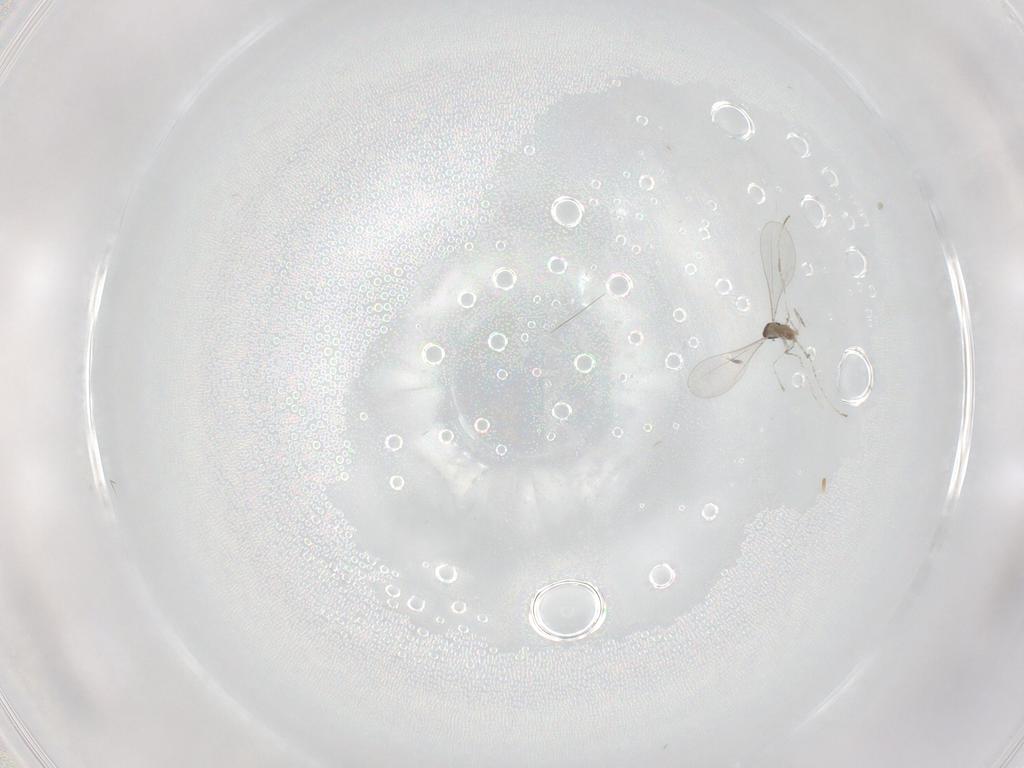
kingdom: Animalia
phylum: Arthropoda
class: Insecta
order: Diptera
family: Cecidomyiidae
